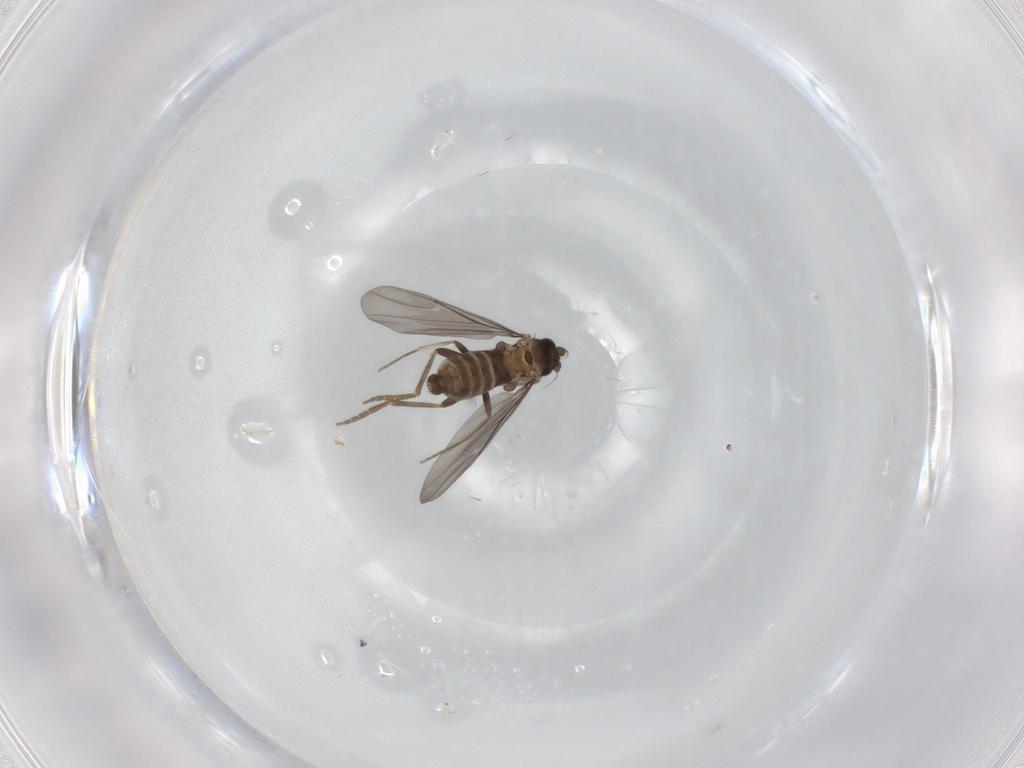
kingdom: Animalia
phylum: Arthropoda
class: Insecta
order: Diptera
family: Phoridae
